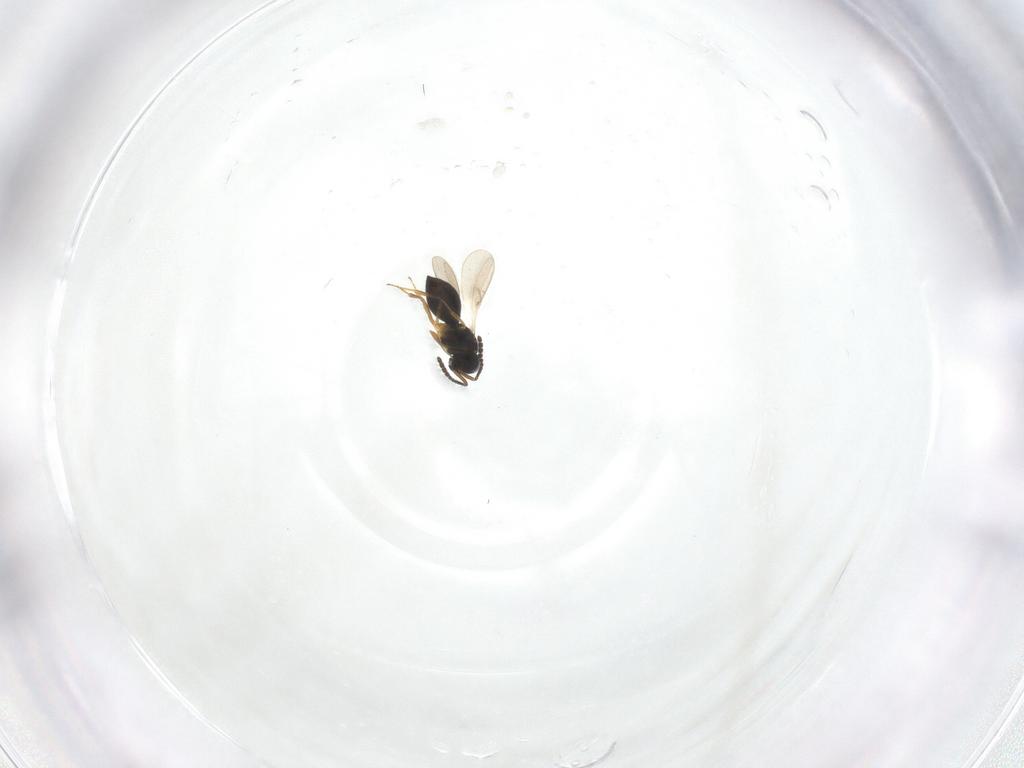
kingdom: Animalia
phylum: Arthropoda
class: Insecta
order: Hymenoptera
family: Scelionidae
